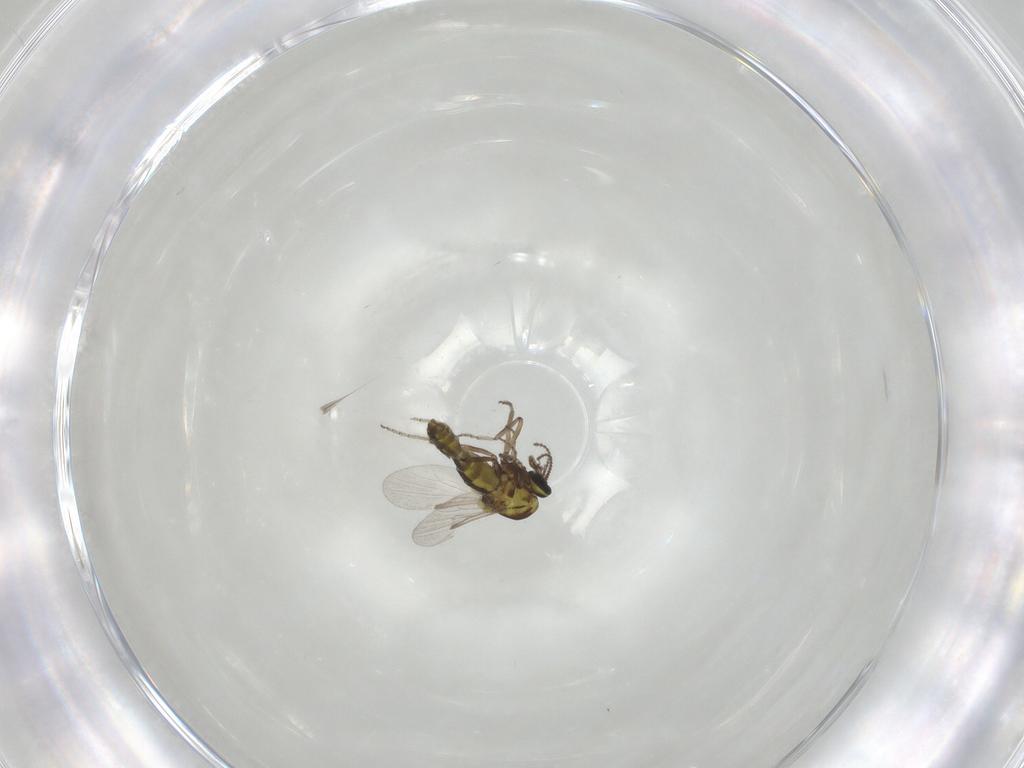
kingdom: Animalia
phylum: Arthropoda
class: Insecta
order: Diptera
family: Ceratopogonidae
